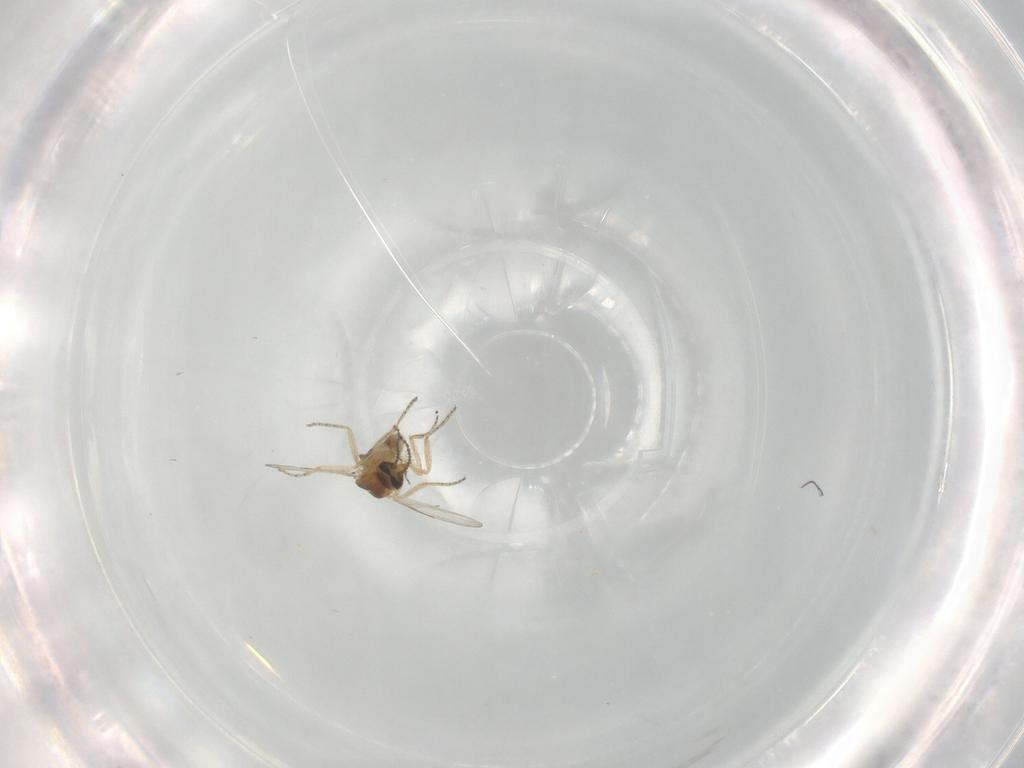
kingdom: Animalia
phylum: Arthropoda
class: Insecta
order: Diptera
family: Ceratopogonidae
